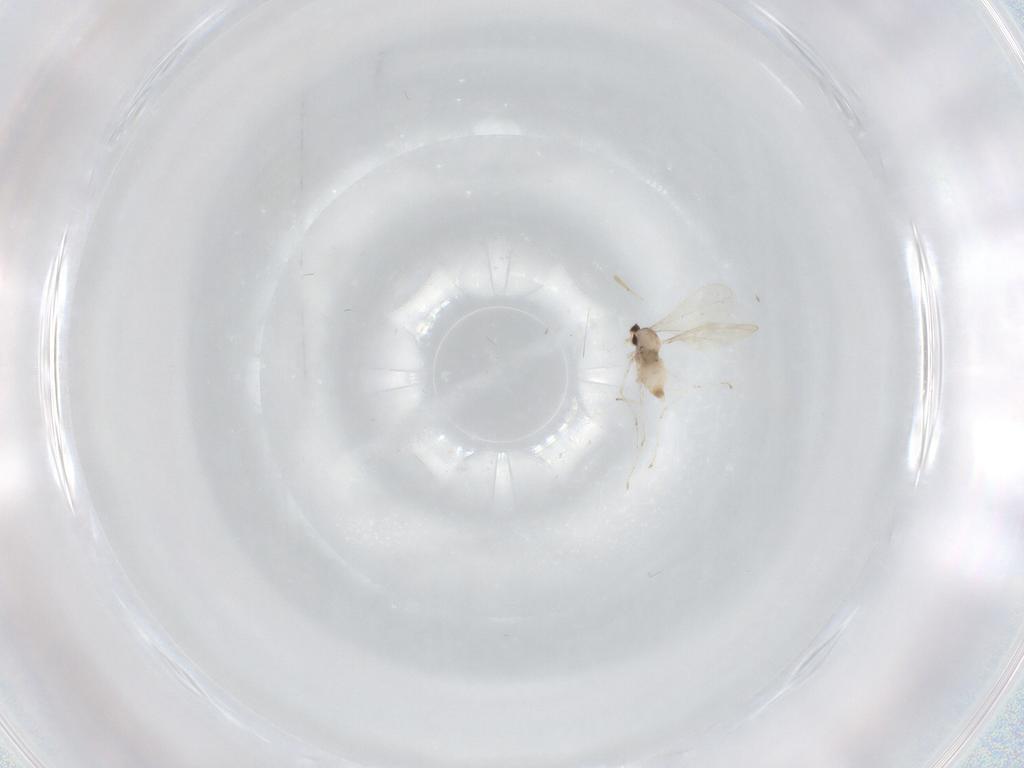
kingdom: Animalia
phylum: Arthropoda
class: Insecta
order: Diptera
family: Cecidomyiidae
